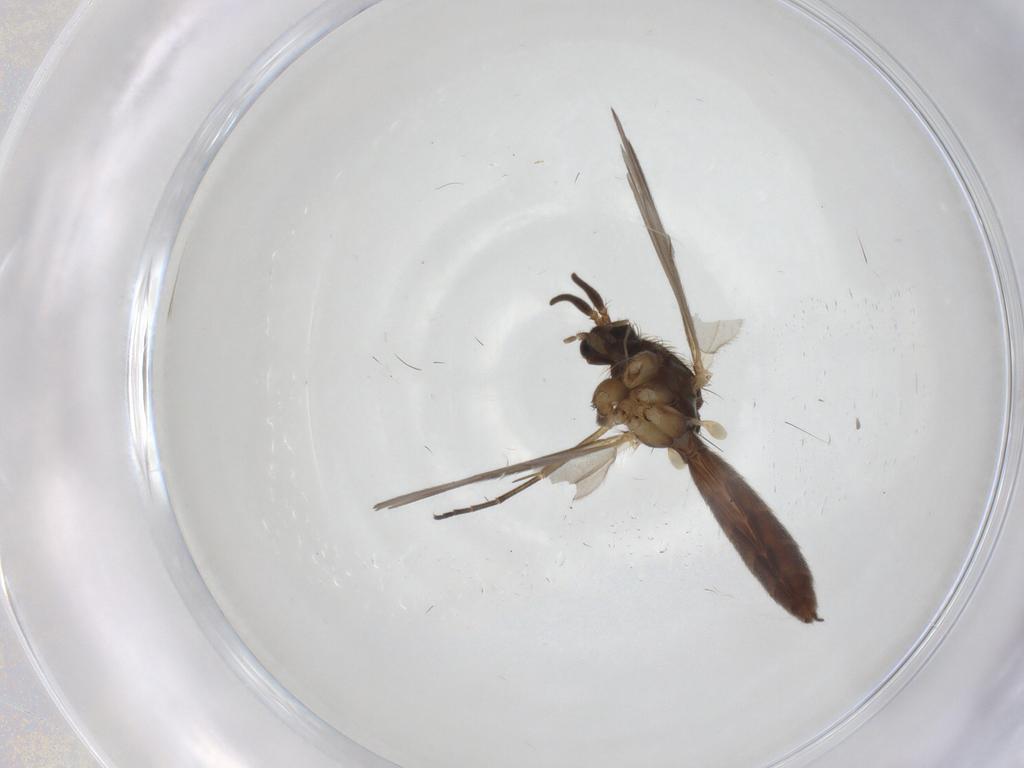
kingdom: Animalia
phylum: Arthropoda
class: Insecta
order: Diptera
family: Mycetophilidae
